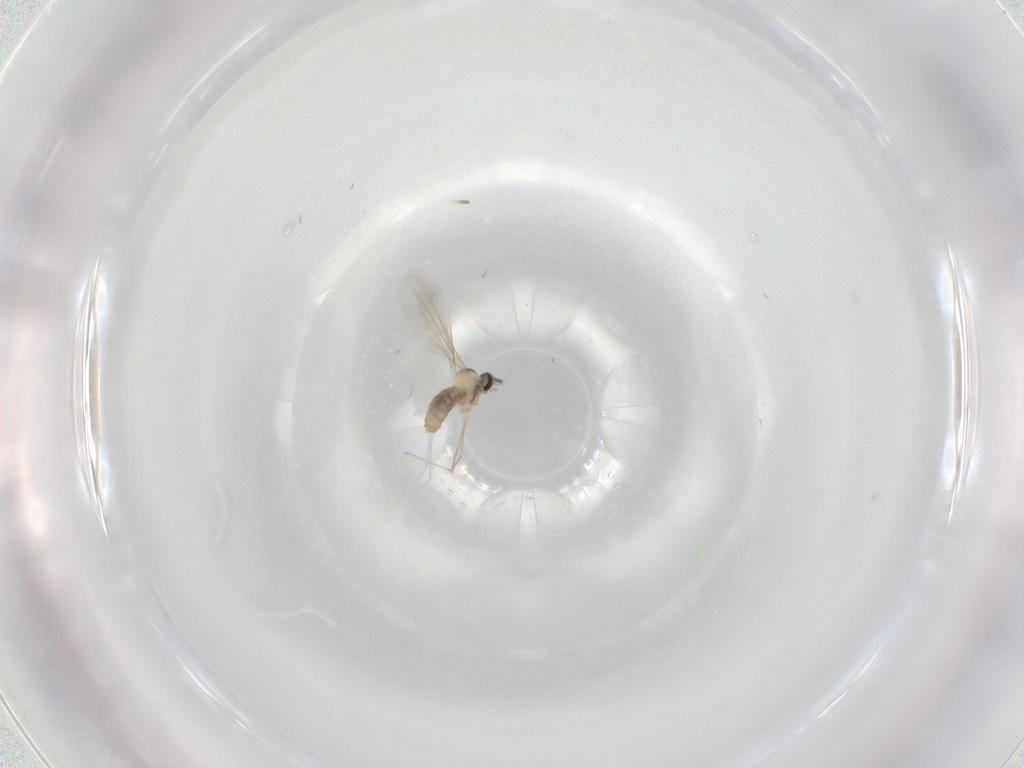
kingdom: Animalia
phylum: Arthropoda
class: Insecta
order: Diptera
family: Cecidomyiidae
